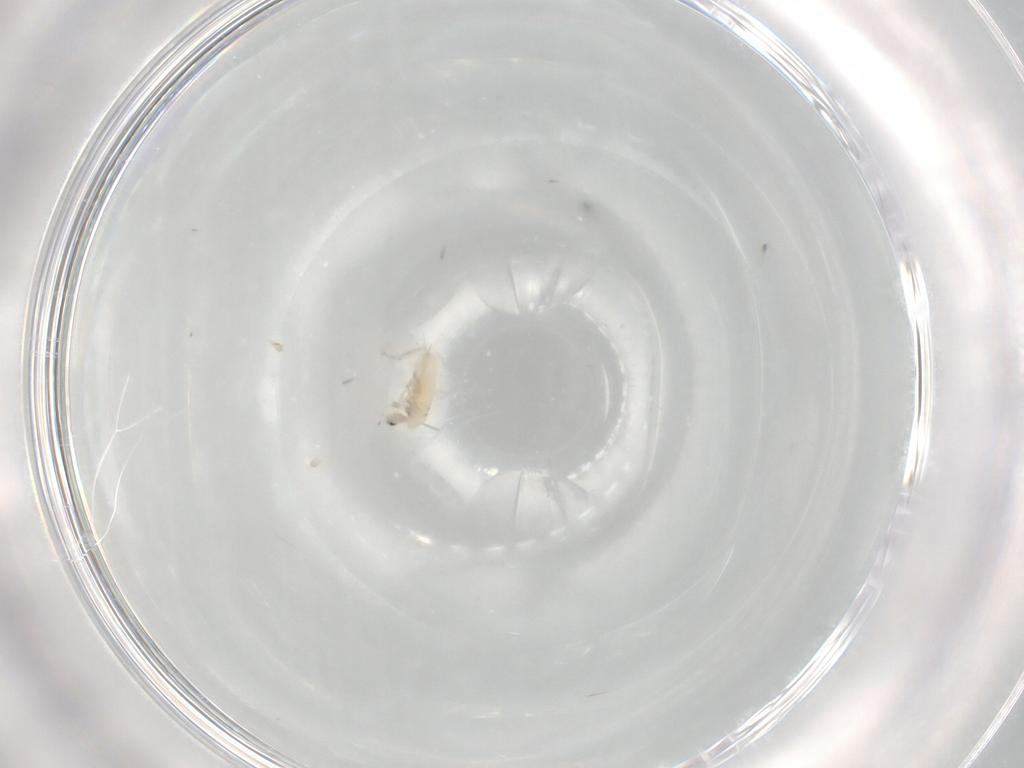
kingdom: Animalia
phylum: Arthropoda
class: Collembola
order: Entomobryomorpha
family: Entomobryidae
